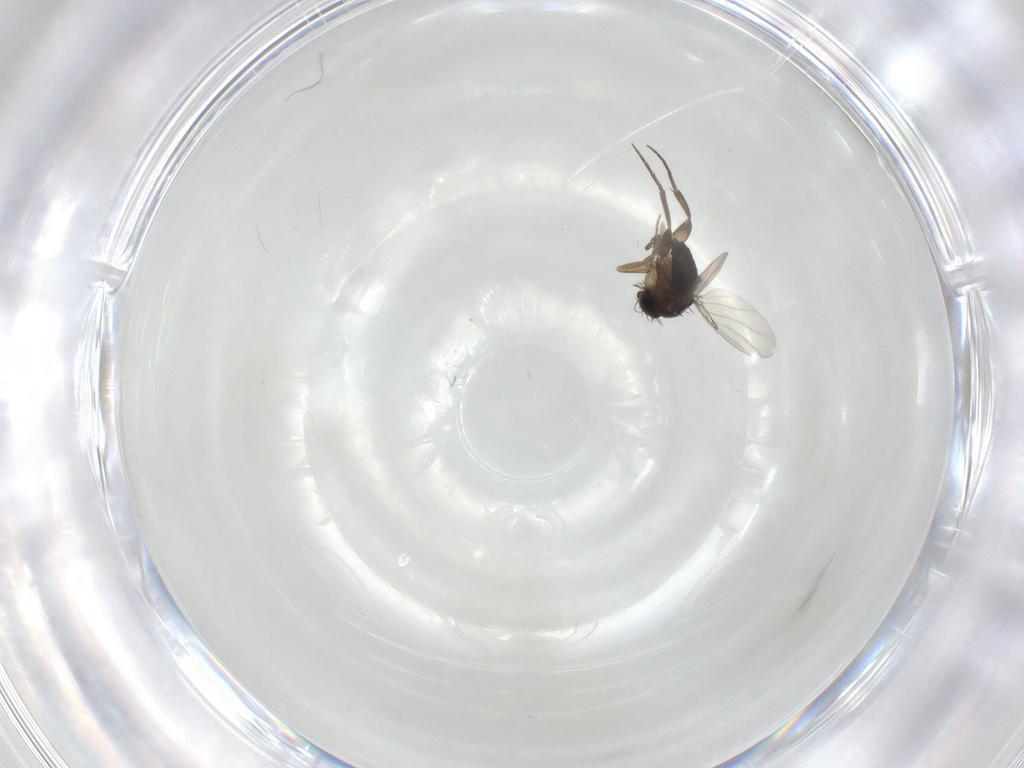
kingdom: Animalia
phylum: Arthropoda
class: Insecta
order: Diptera
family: Phoridae
